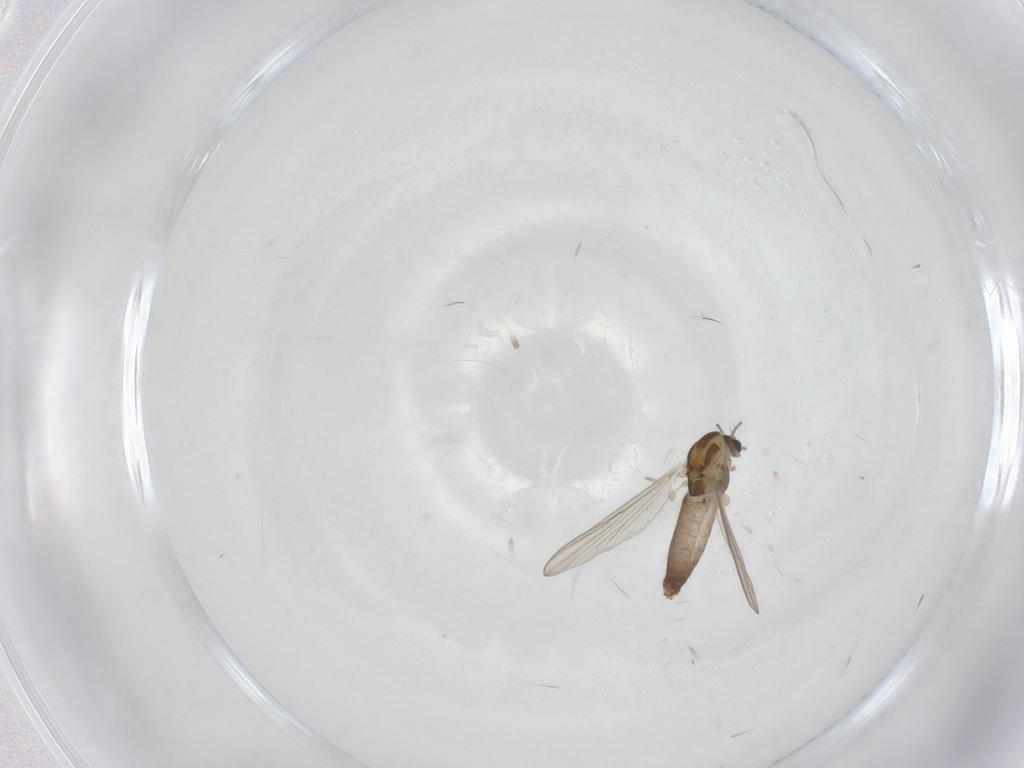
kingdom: Animalia
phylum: Arthropoda
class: Insecta
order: Diptera
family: Chironomidae
